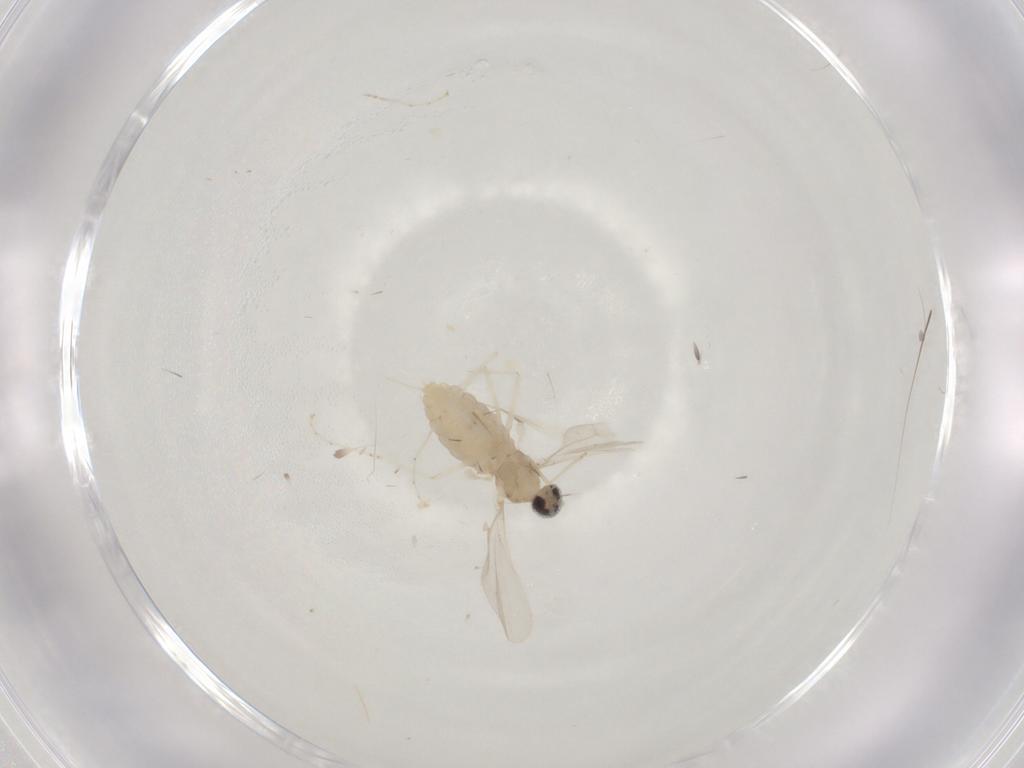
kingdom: Animalia
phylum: Arthropoda
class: Insecta
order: Diptera
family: Cecidomyiidae
